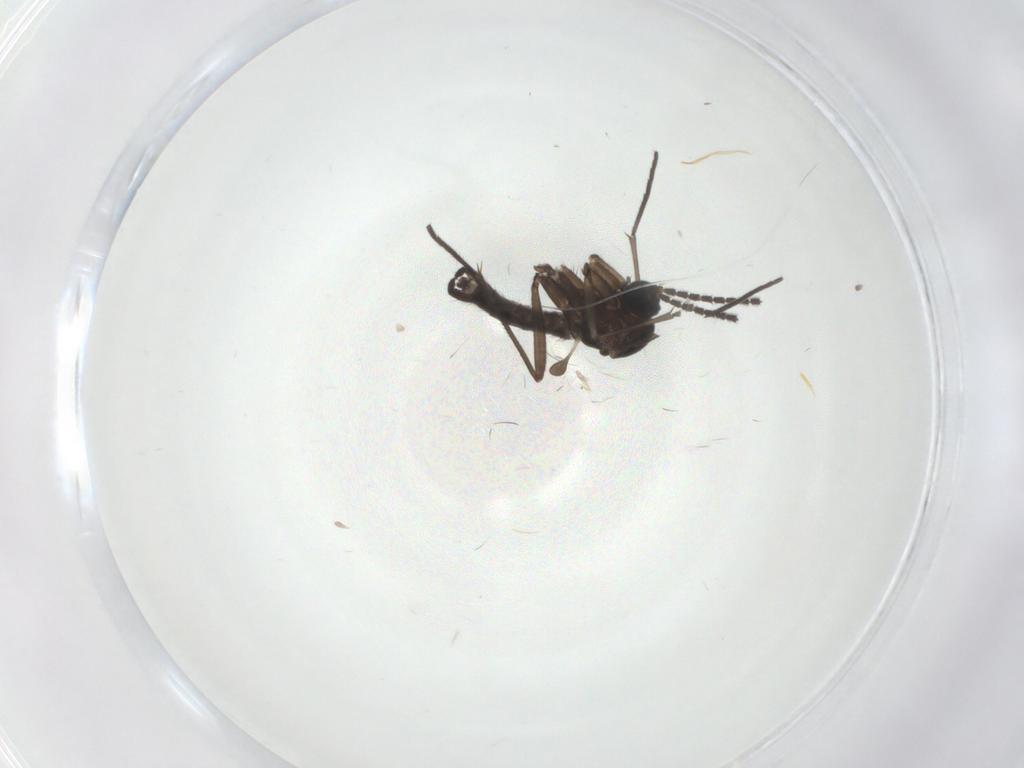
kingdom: Animalia
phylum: Arthropoda
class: Insecta
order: Diptera
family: Sciaridae
